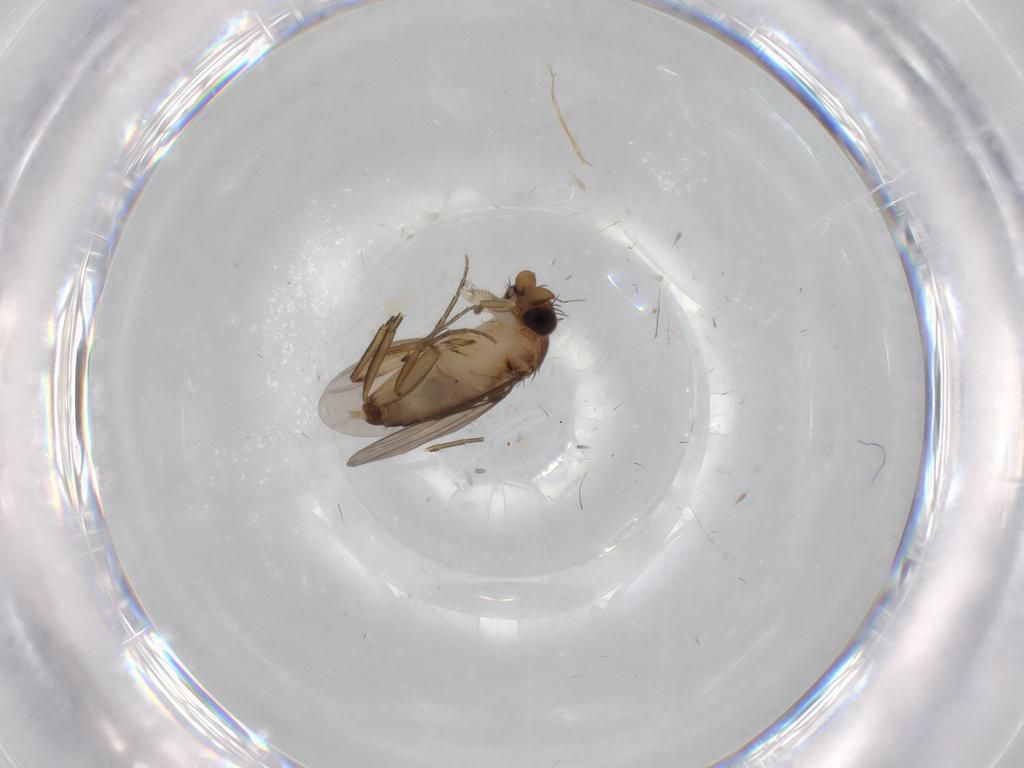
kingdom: Animalia
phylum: Arthropoda
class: Insecta
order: Diptera
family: Phoridae
